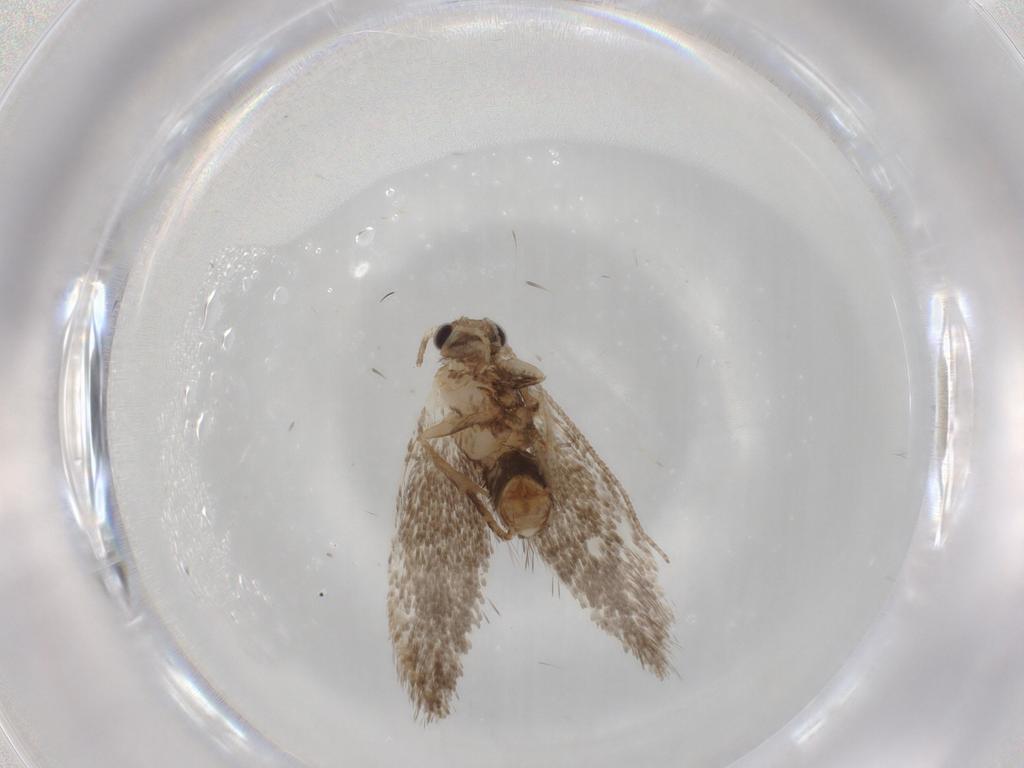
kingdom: Animalia
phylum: Arthropoda
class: Insecta
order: Lepidoptera
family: Tineidae
